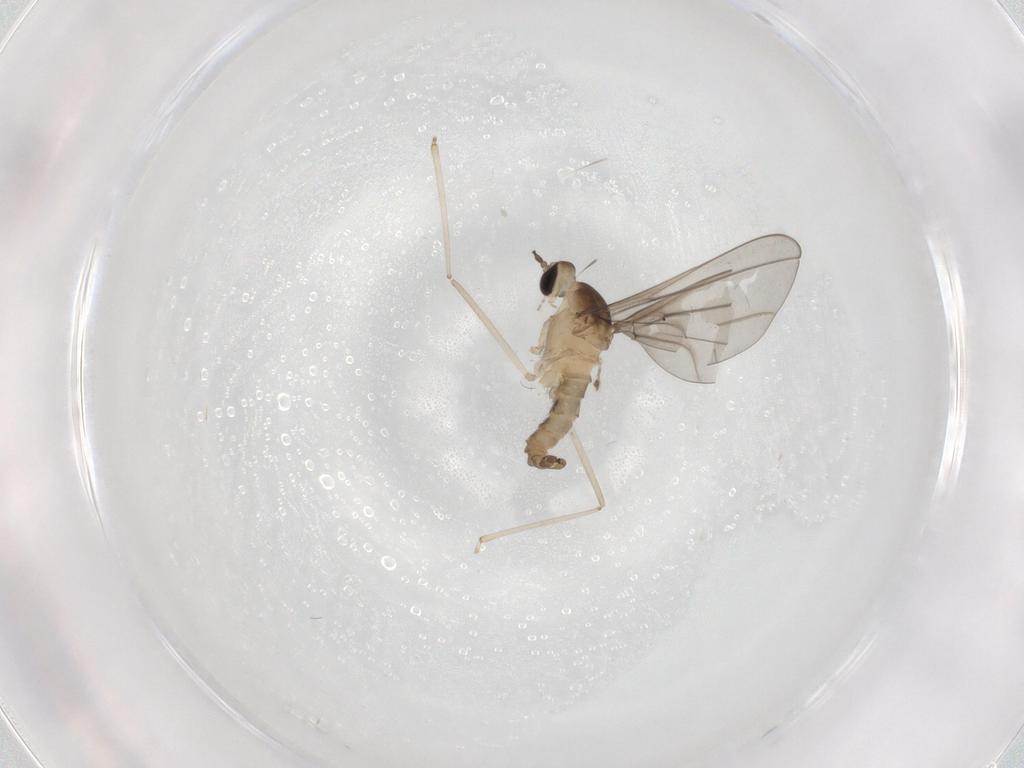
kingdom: Animalia
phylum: Arthropoda
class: Insecta
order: Diptera
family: Cecidomyiidae
